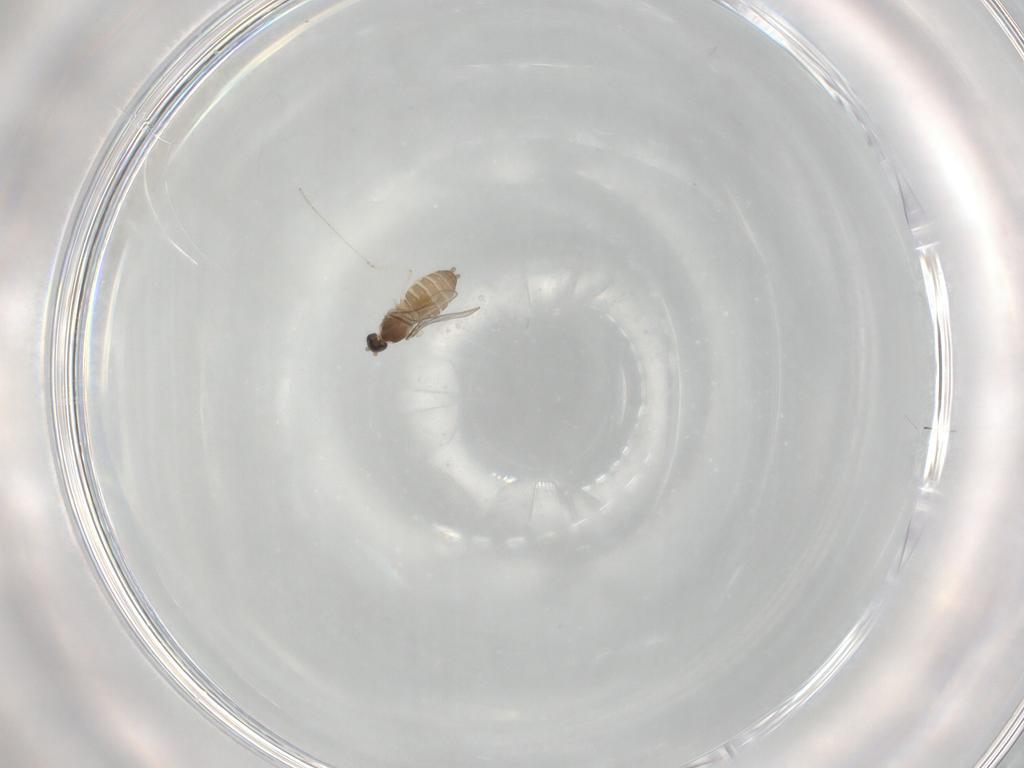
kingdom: Animalia
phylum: Arthropoda
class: Insecta
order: Diptera
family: Cecidomyiidae
